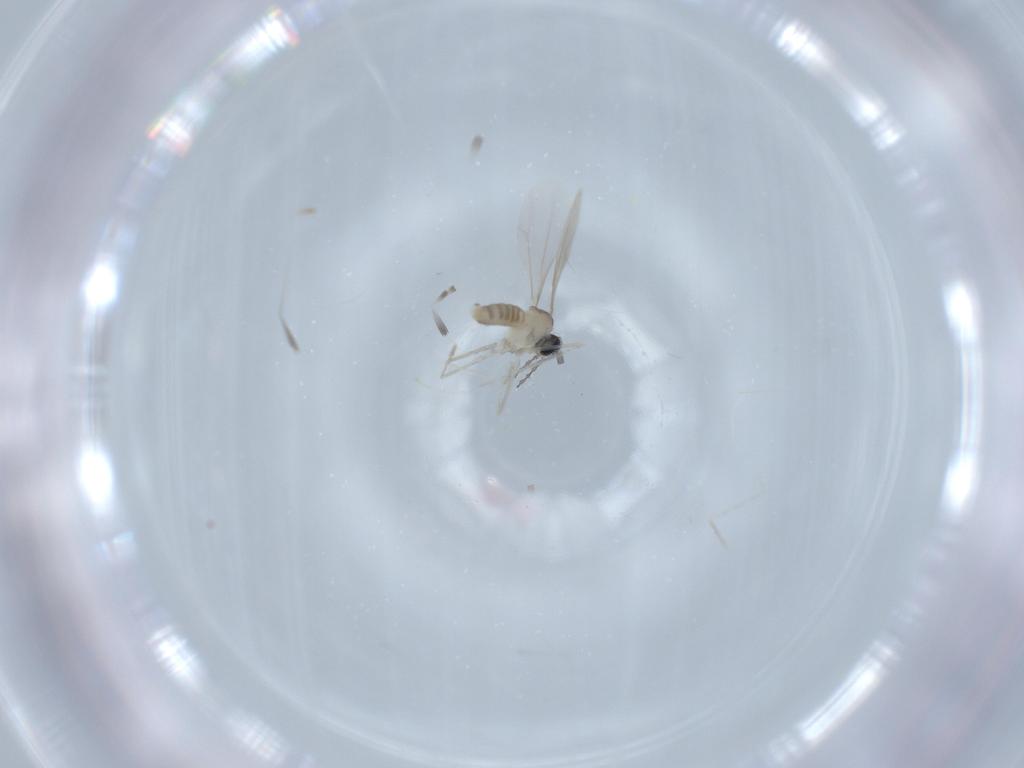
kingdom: Animalia
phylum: Arthropoda
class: Insecta
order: Diptera
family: Cecidomyiidae
